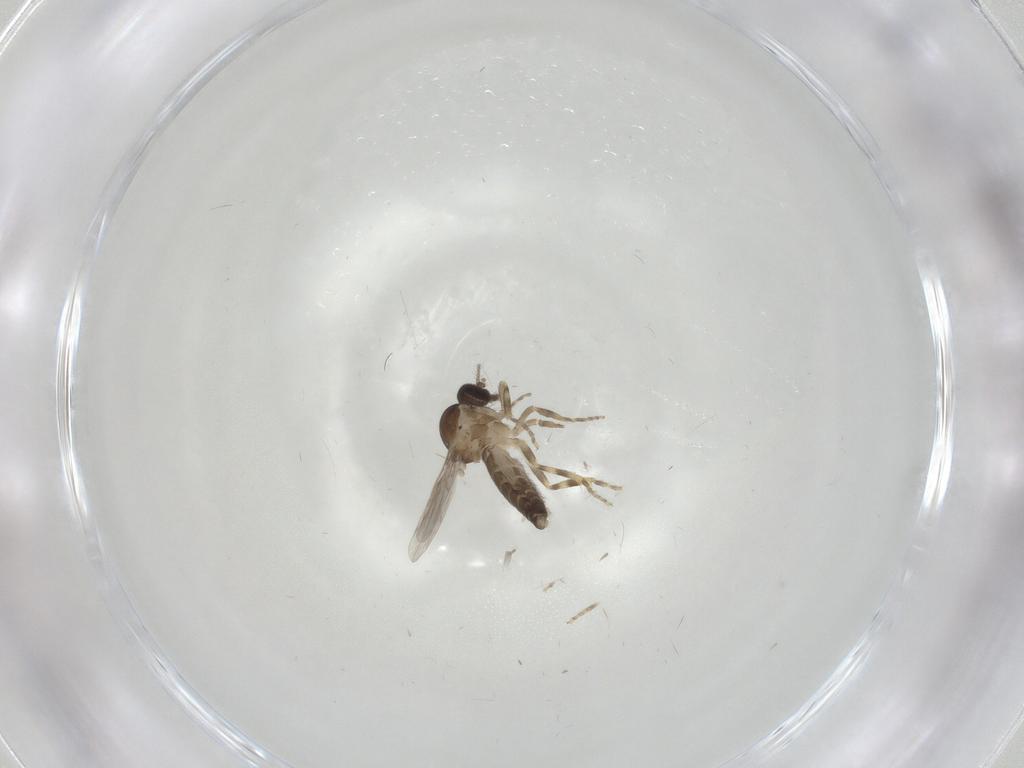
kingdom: Animalia
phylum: Arthropoda
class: Insecta
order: Diptera
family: Ceratopogonidae
